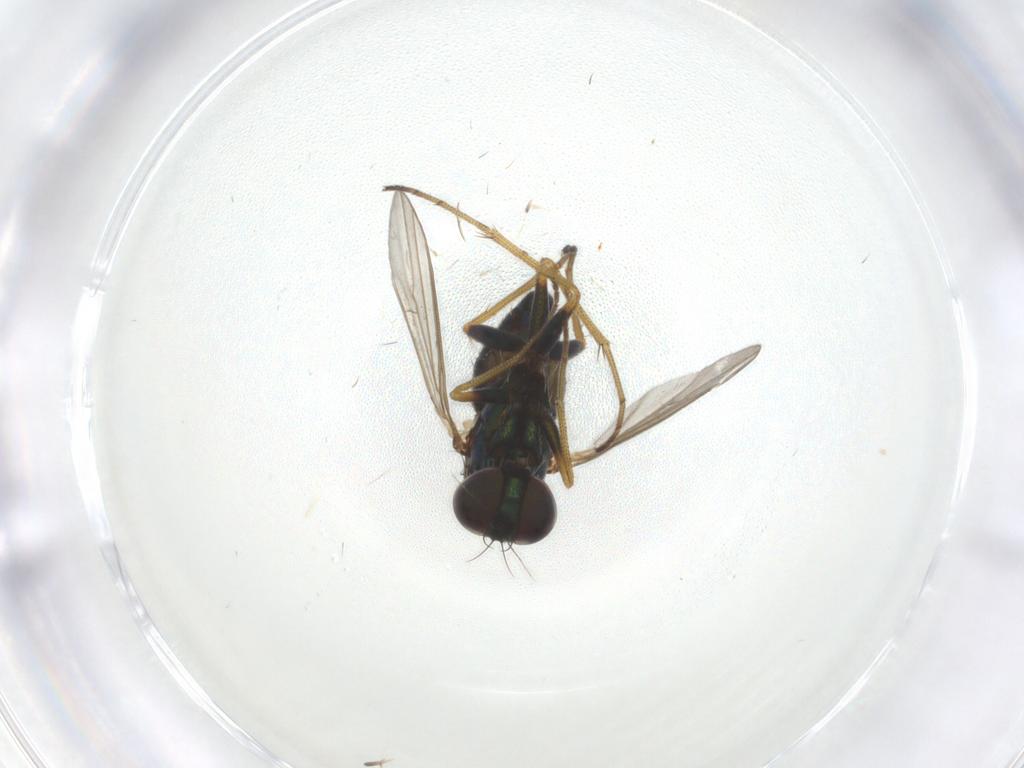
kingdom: Animalia
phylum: Arthropoda
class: Insecta
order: Diptera
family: Dolichopodidae
